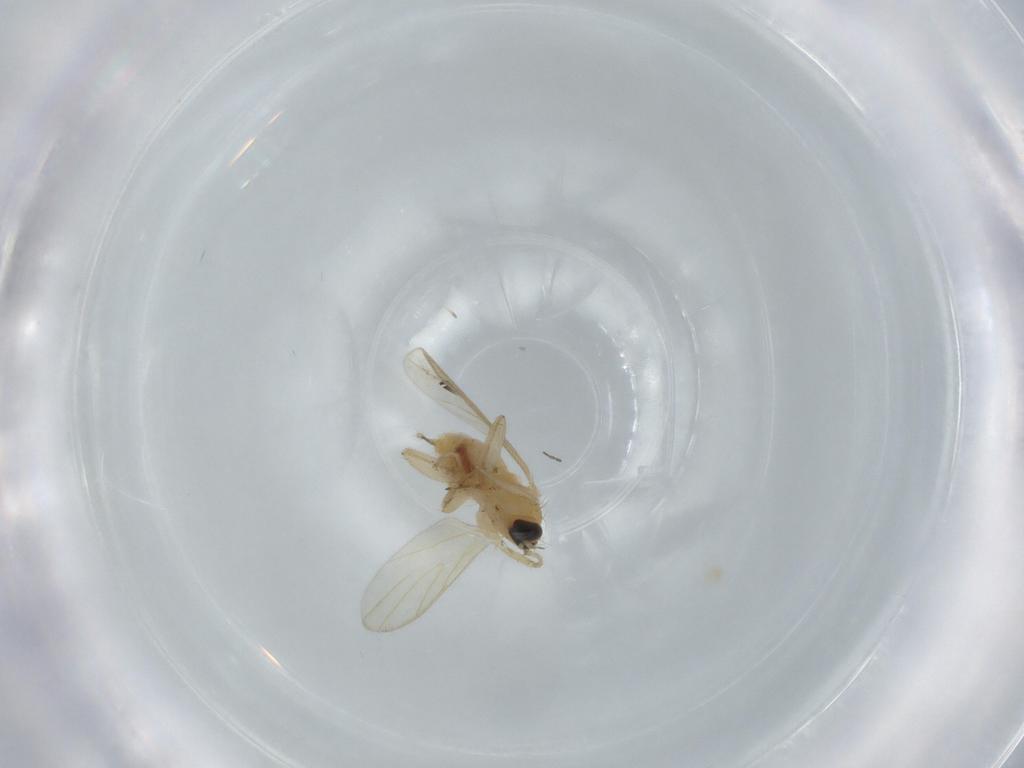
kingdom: Animalia
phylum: Arthropoda
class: Insecta
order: Diptera
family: Hybotidae
